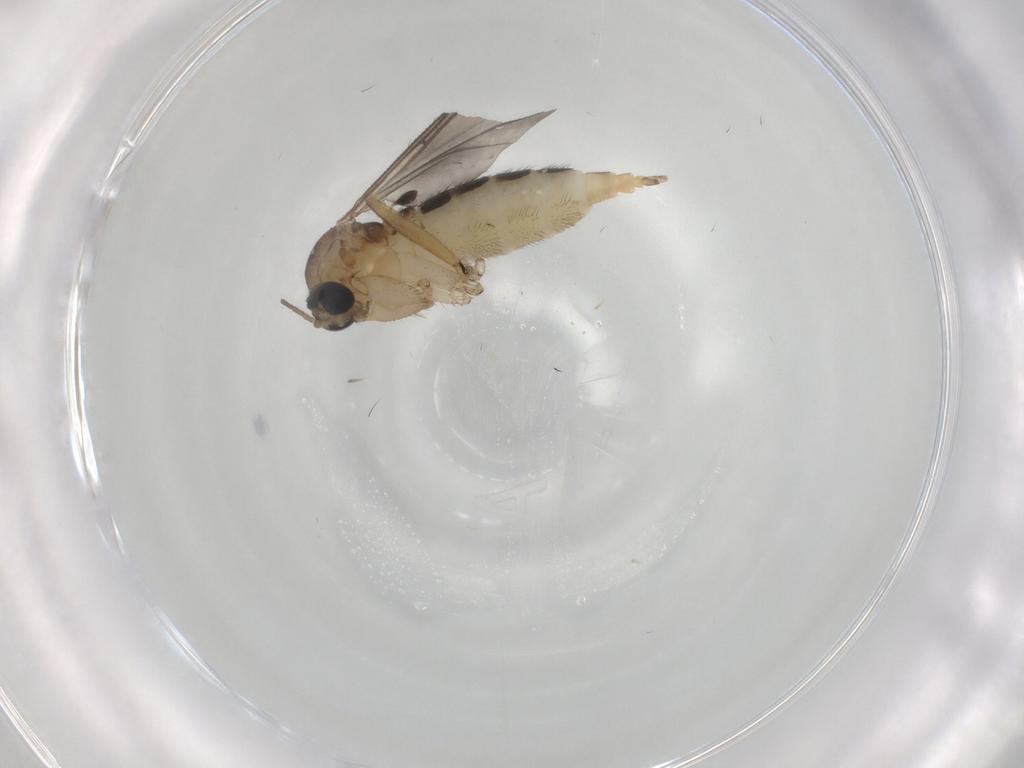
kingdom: Animalia
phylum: Arthropoda
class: Insecta
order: Diptera
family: Sciaridae
